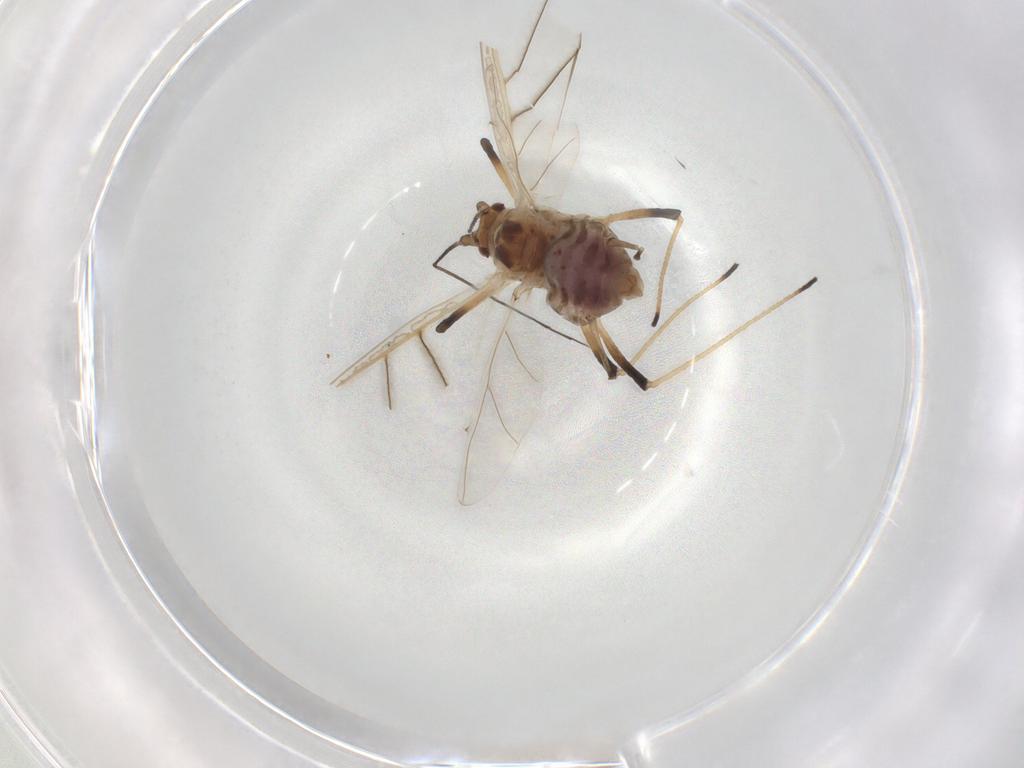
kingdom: Animalia
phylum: Arthropoda
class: Insecta
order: Hemiptera
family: Aphididae
